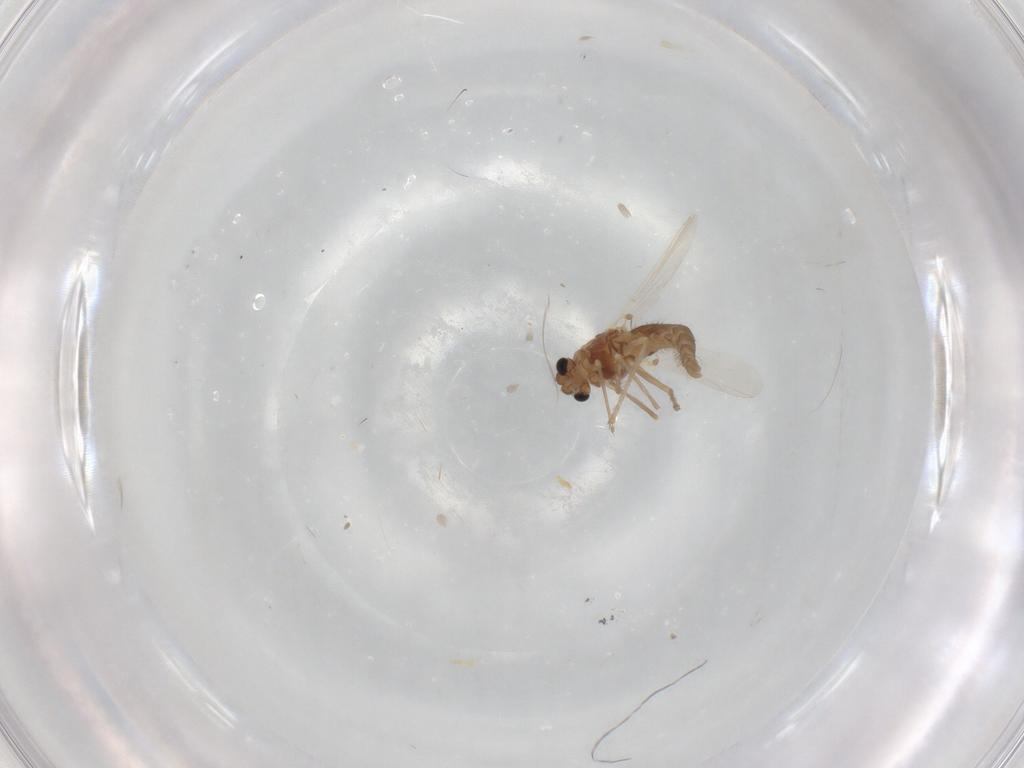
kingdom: Animalia
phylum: Arthropoda
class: Insecta
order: Diptera
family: Chironomidae
